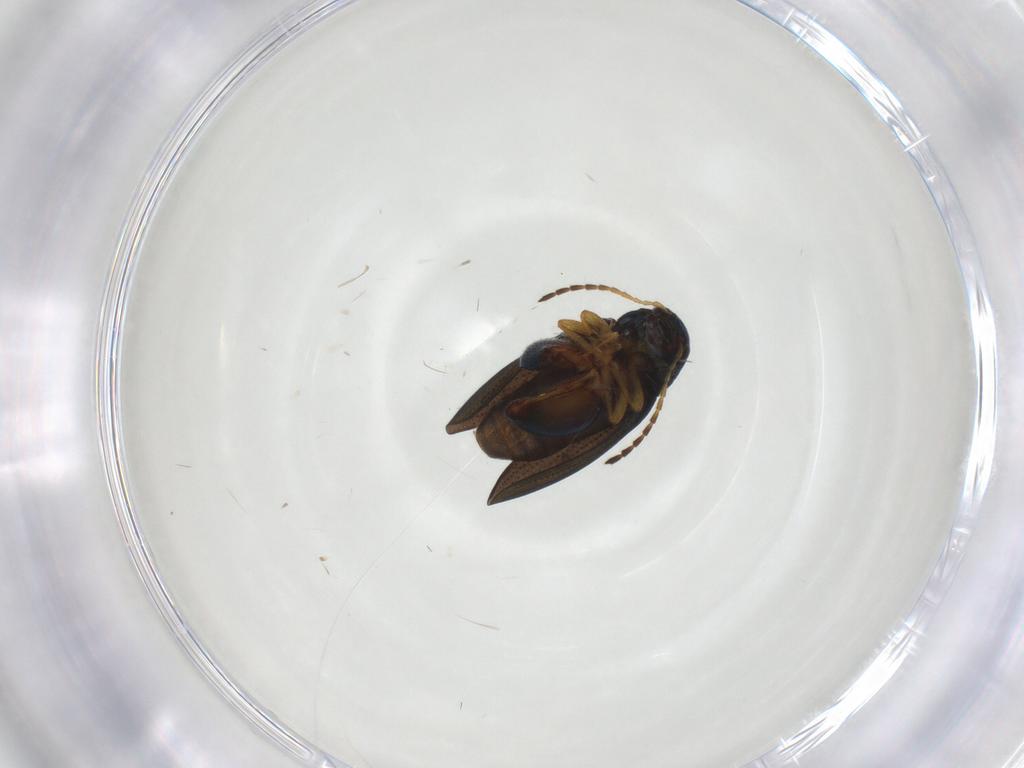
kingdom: Animalia
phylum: Arthropoda
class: Insecta
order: Coleoptera
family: Chrysomelidae
